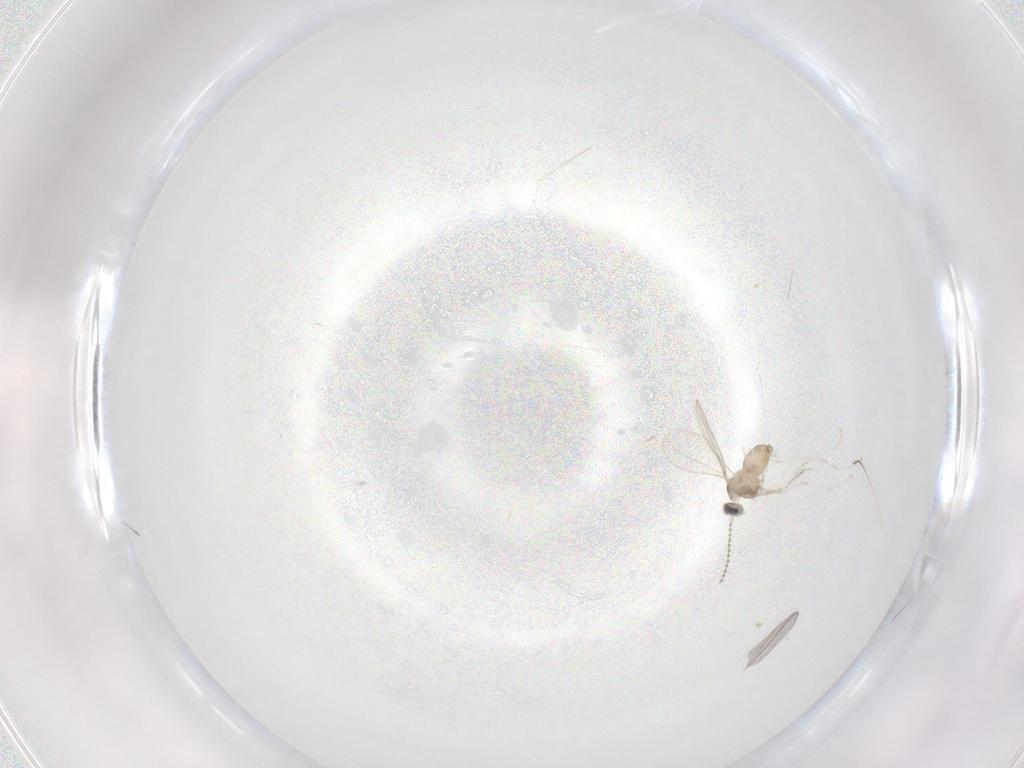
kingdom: Animalia
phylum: Arthropoda
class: Insecta
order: Diptera
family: Cecidomyiidae
